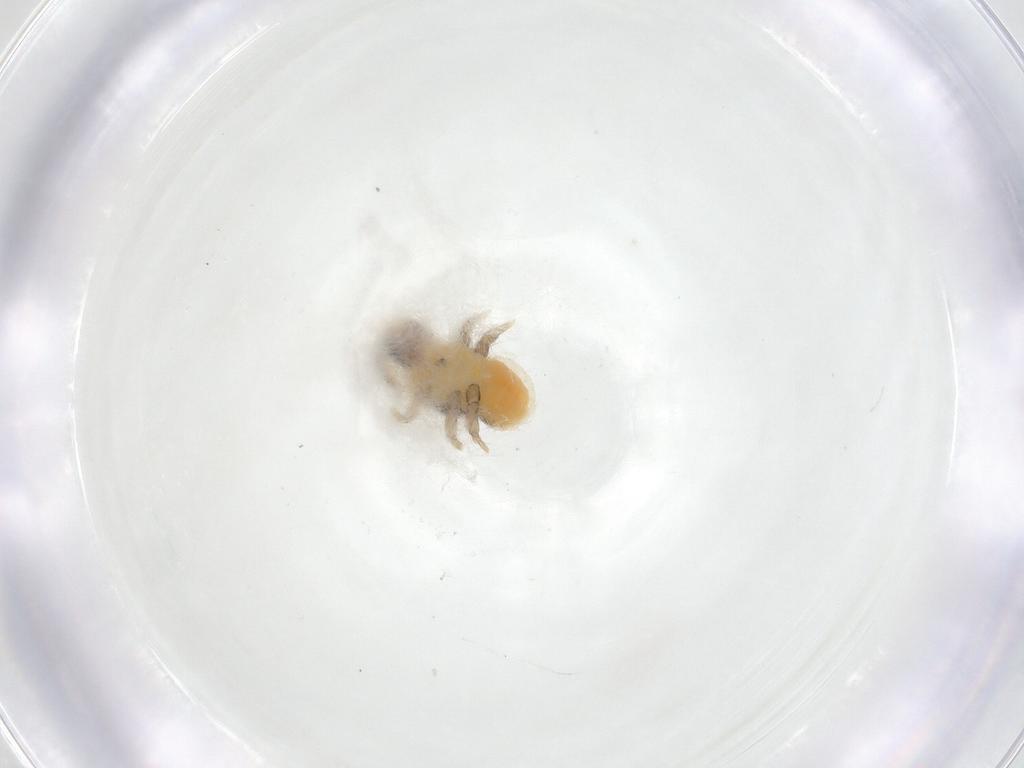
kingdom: Animalia
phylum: Arthropoda
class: Insecta
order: Hemiptera
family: Triozidae
